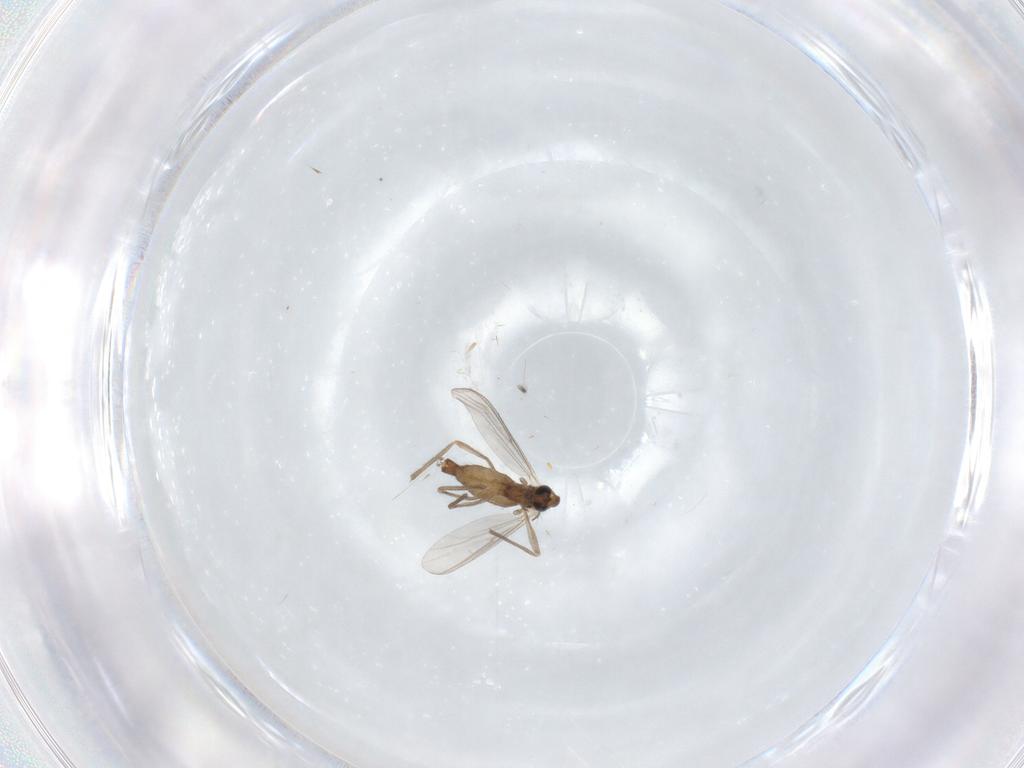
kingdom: Animalia
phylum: Arthropoda
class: Insecta
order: Diptera
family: Chironomidae
